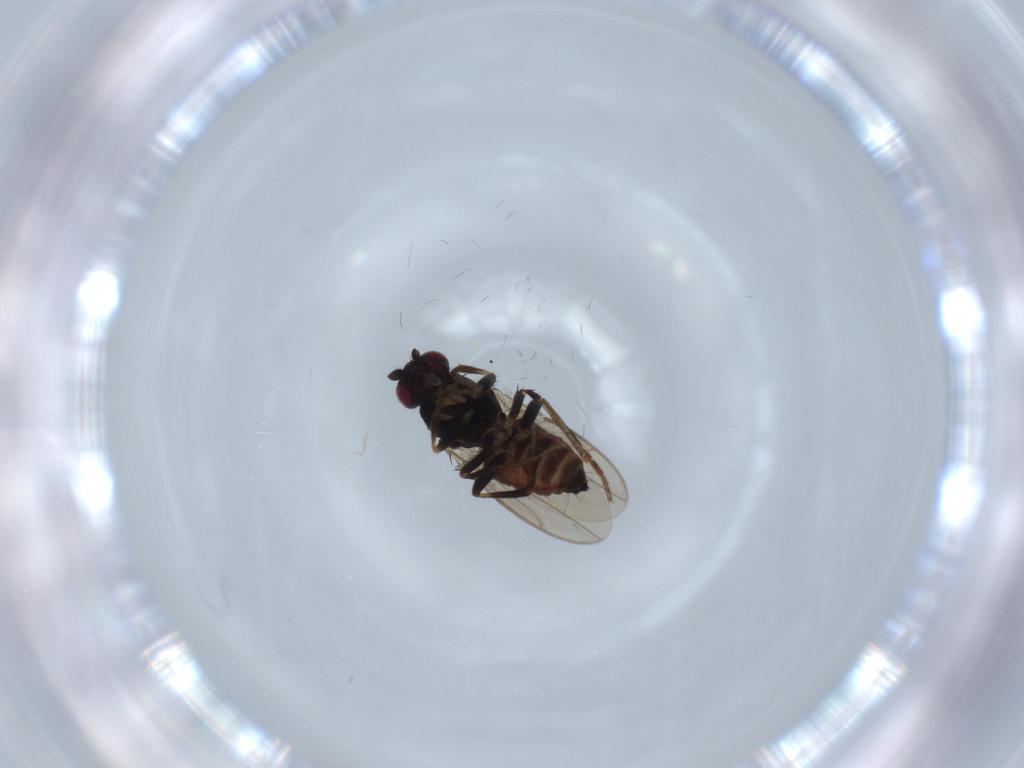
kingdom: Animalia
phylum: Arthropoda
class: Insecta
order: Diptera
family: Sphaeroceridae
